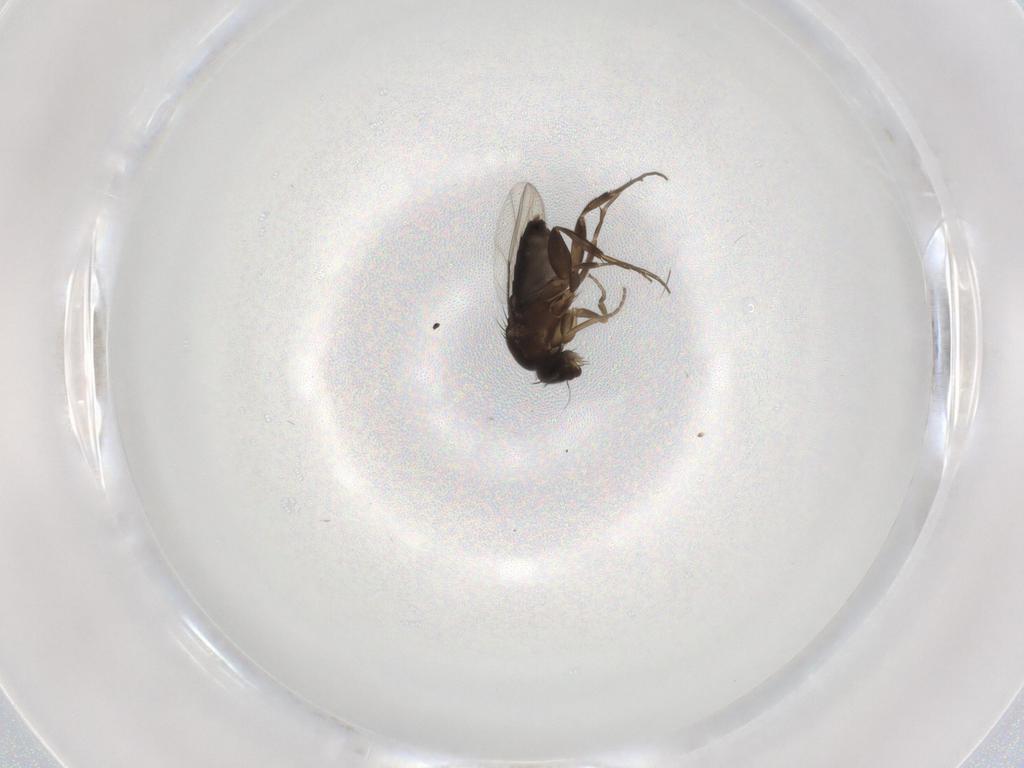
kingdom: Animalia
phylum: Arthropoda
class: Insecta
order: Diptera
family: Phoridae
